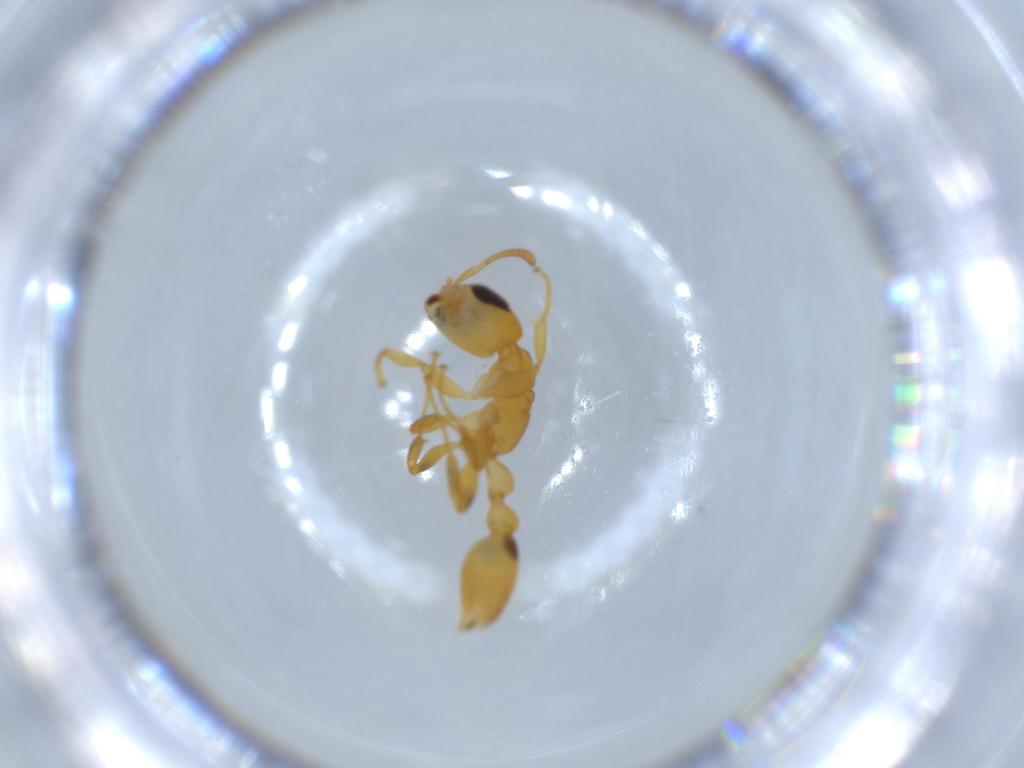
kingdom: Animalia
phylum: Arthropoda
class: Insecta
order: Hymenoptera
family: Formicidae
